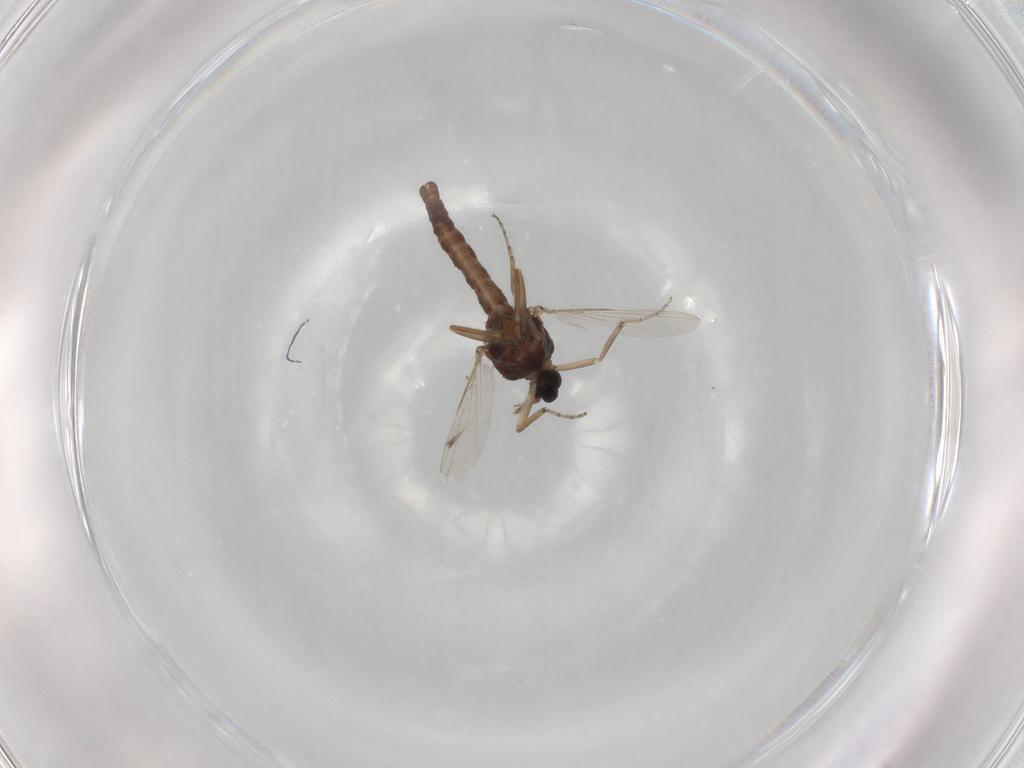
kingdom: Animalia
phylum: Arthropoda
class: Insecta
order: Diptera
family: Ceratopogonidae
